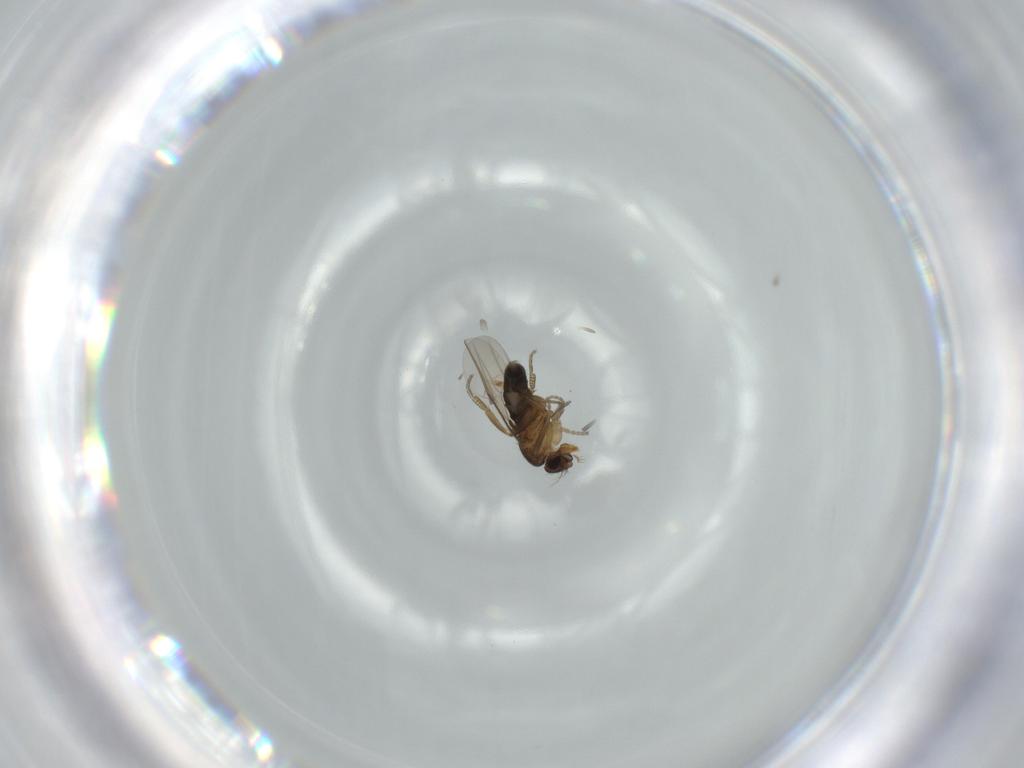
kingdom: Animalia
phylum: Arthropoda
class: Insecta
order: Diptera
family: Phoridae
